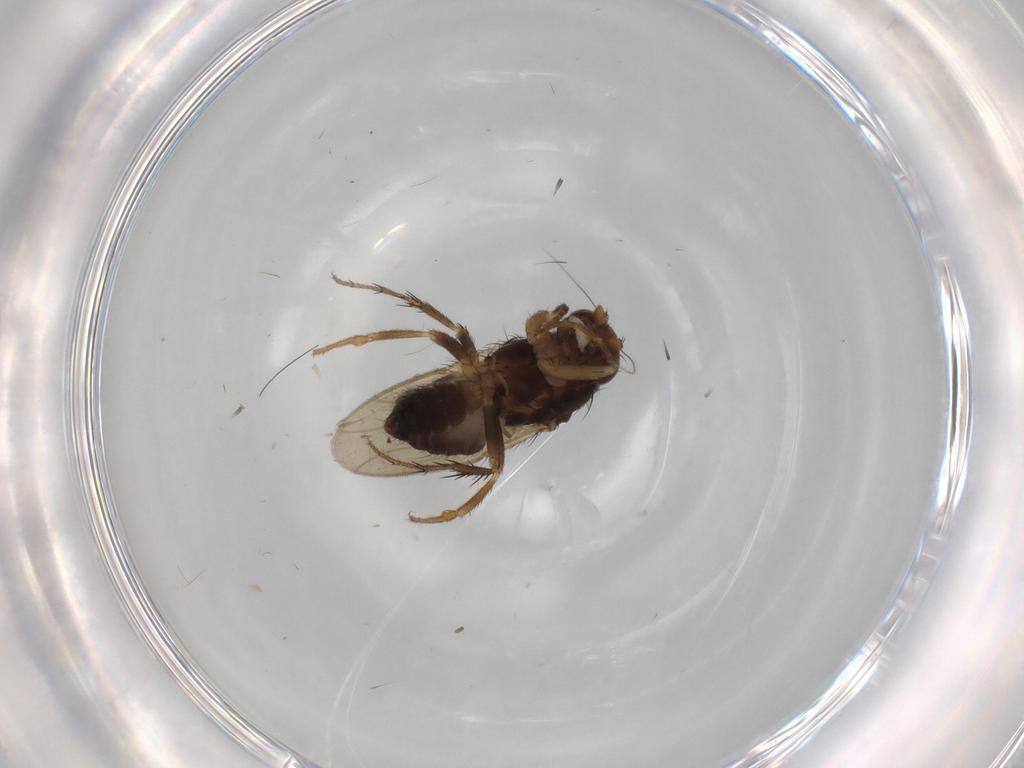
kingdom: Animalia
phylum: Arthropoda
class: Insecta
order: Diptera
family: Sphaeroceridae
